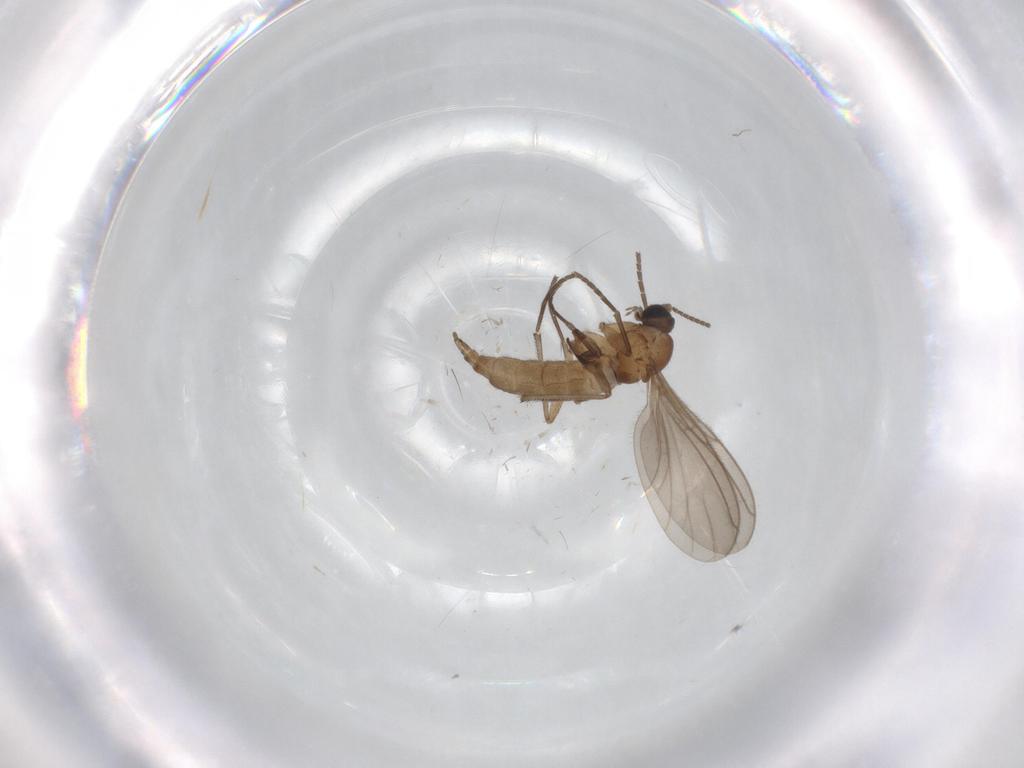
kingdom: Animalia
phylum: Arthropoda
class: Insecta
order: Diptera
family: Sciaridae
